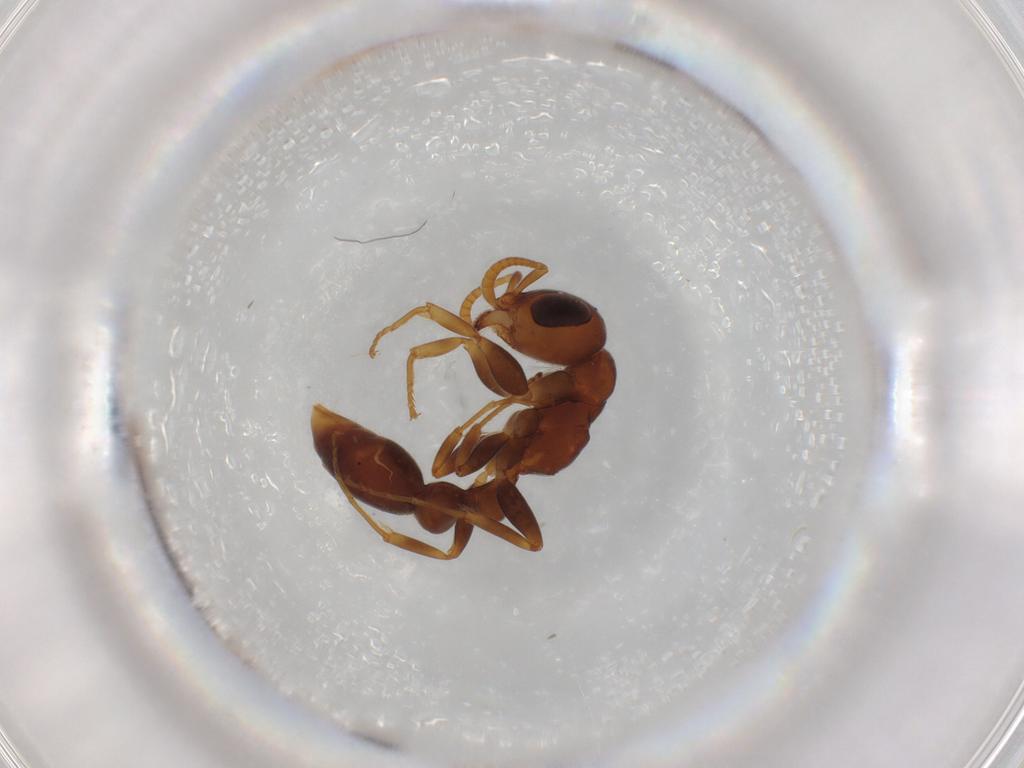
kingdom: Animalia
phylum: Arthropoda
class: Insecta
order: Hymenoptera
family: Formicidae
